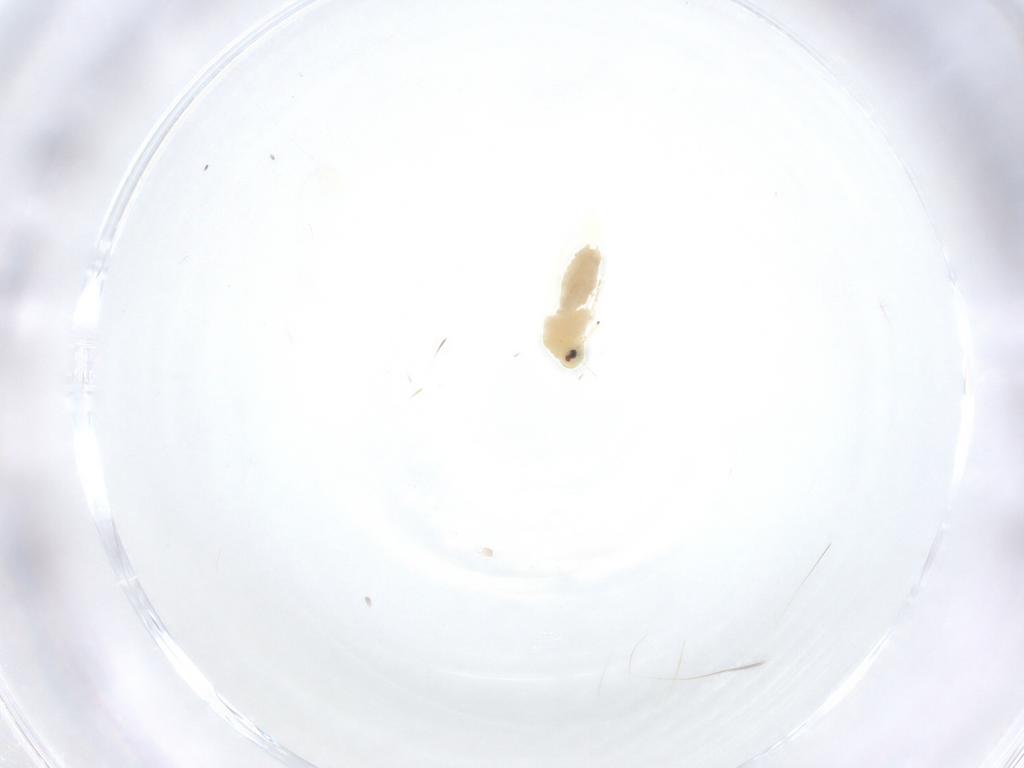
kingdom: Animalia
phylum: Arthropoda
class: Insecta
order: Hemiptera
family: Aleyrodidae
